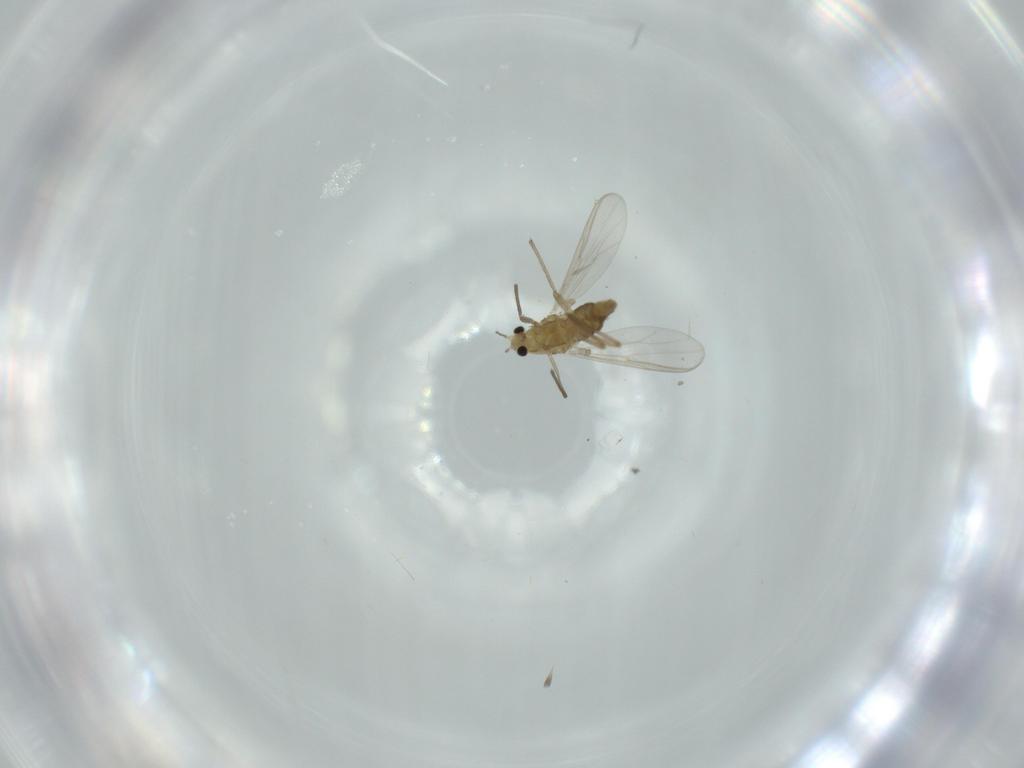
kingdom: Animalia
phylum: Arthropoda
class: Insecta
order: Diptera
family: Chironomidae
